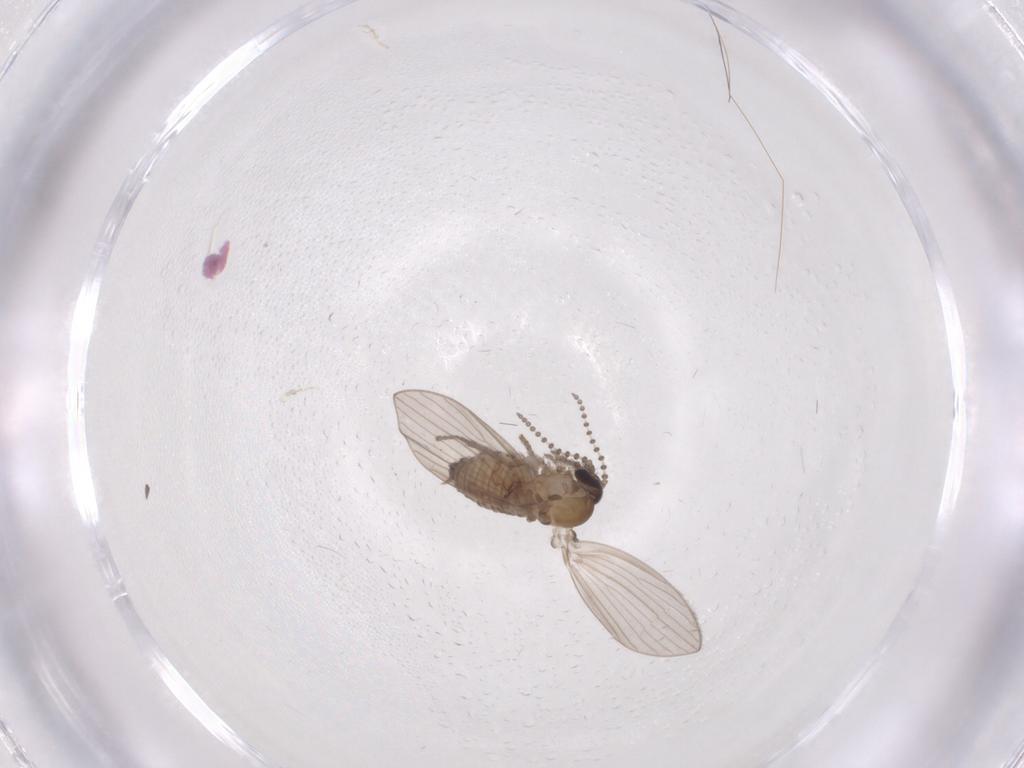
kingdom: Animalia
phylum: Arthropoda
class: Insecta
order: Diptera
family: Psychodidae
